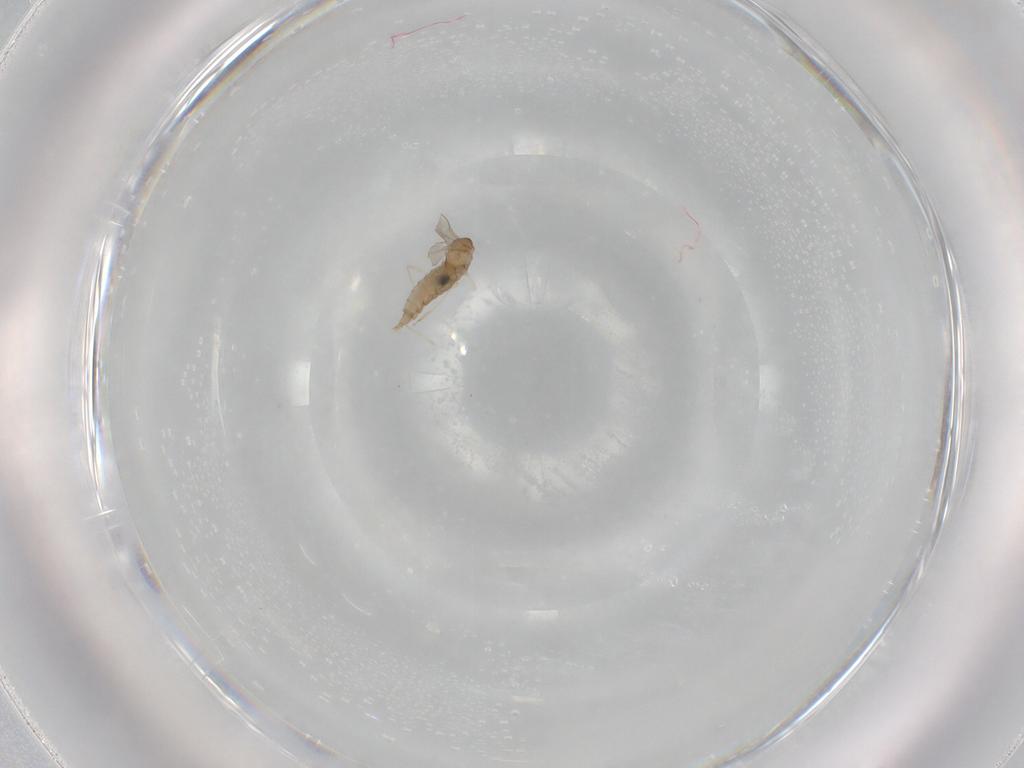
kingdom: Animalia
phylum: Arthropoda
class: Insecta
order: Diptera
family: Cecidomyiidae
